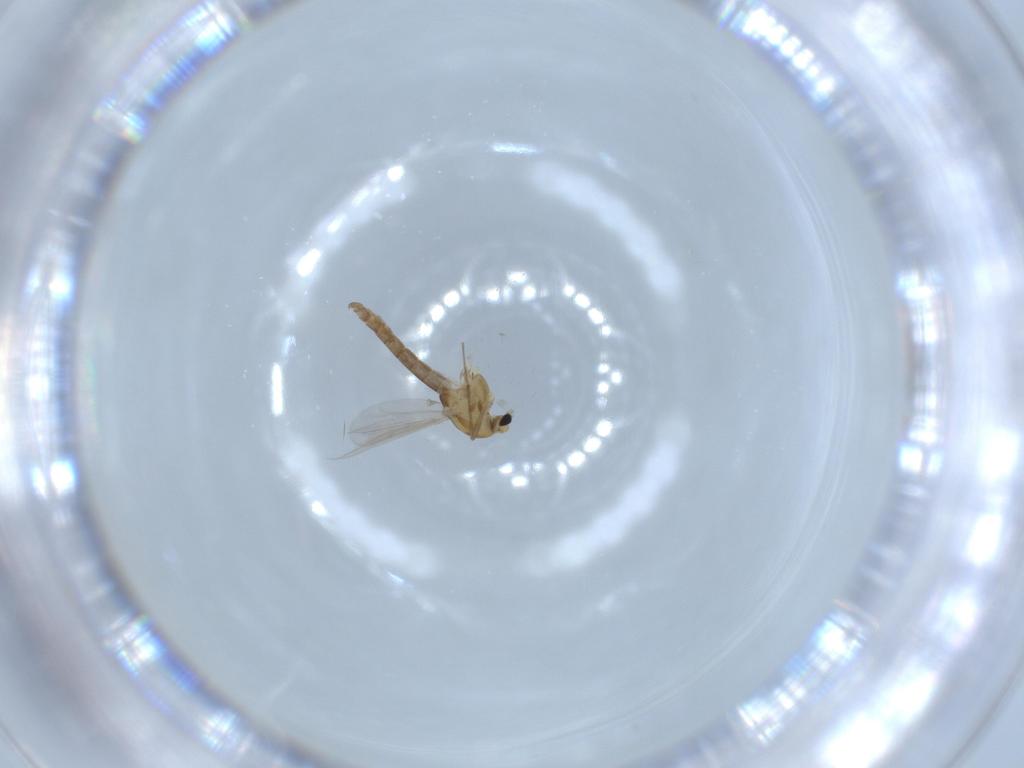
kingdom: Animalia
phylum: Arthropoda
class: Insecta
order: Diptera
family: Chironomidae
